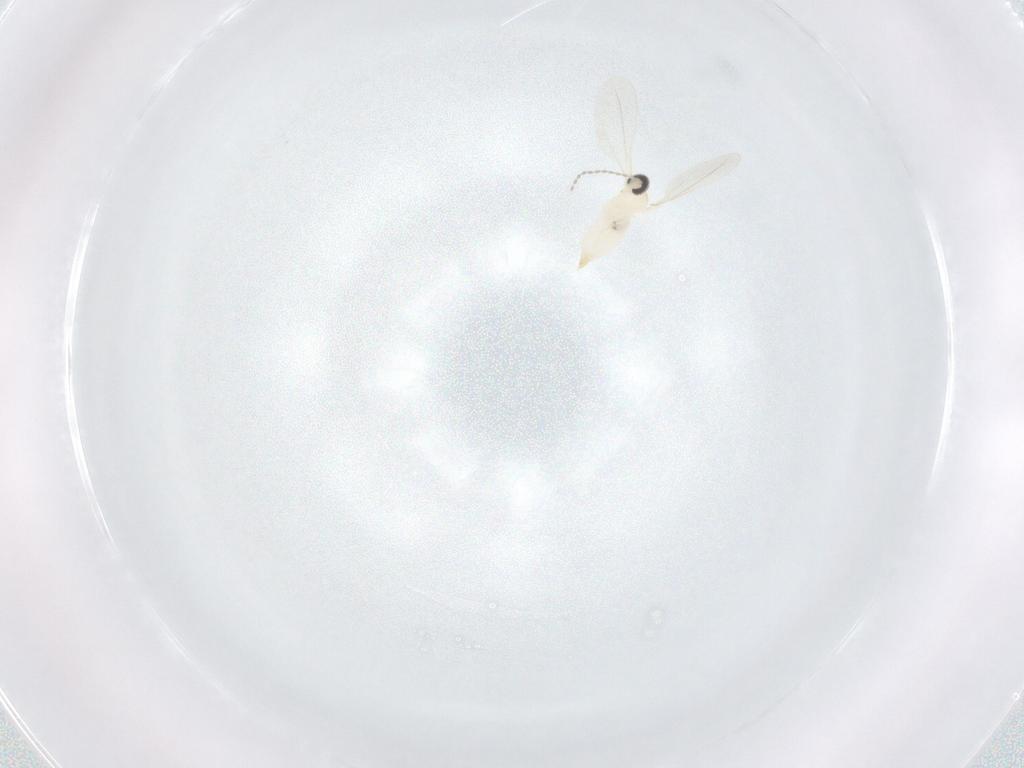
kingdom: Animalia
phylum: Arthropoda
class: Insecta
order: Diptera
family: Cecidomyiidae
